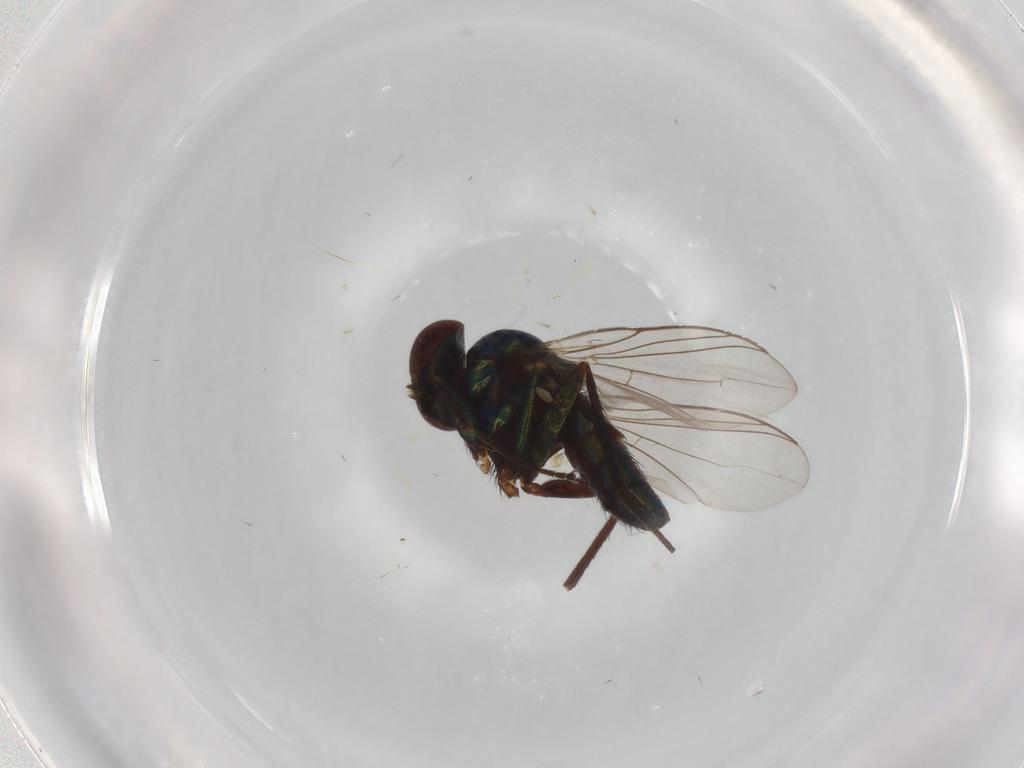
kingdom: Animalia
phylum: Arthropoda
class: Insecta
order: Diptera
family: Dolichopodidae
